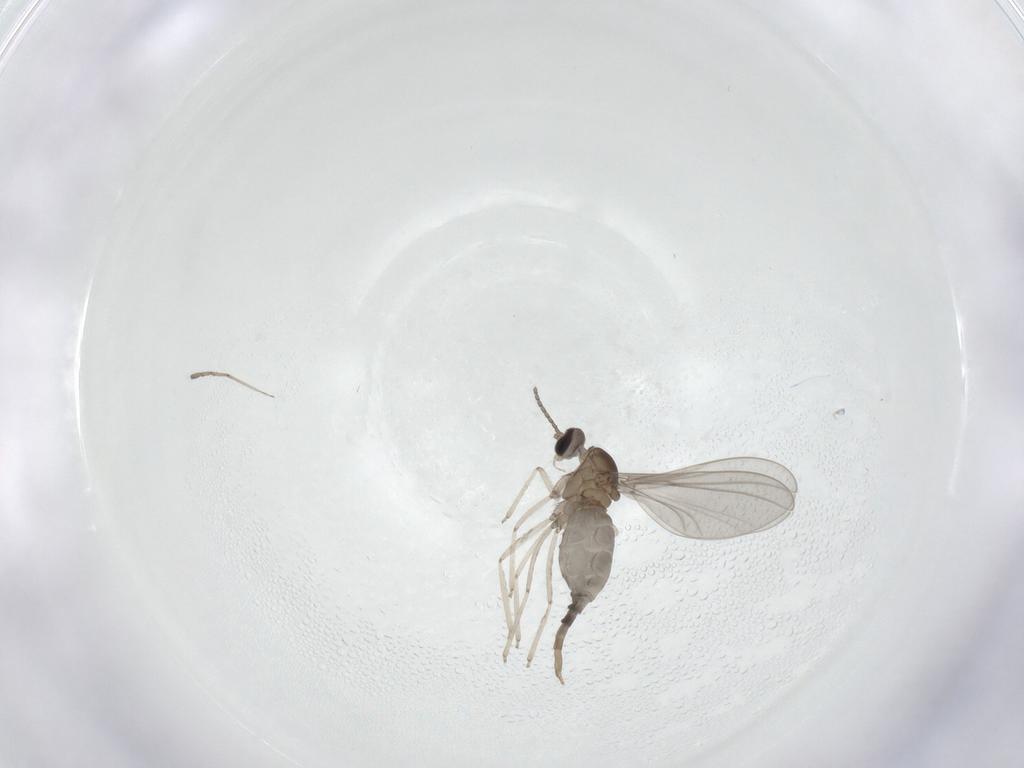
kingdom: Animalia
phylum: Arthropoda
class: Insecta
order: Diptera
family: Cecidomyiidae
